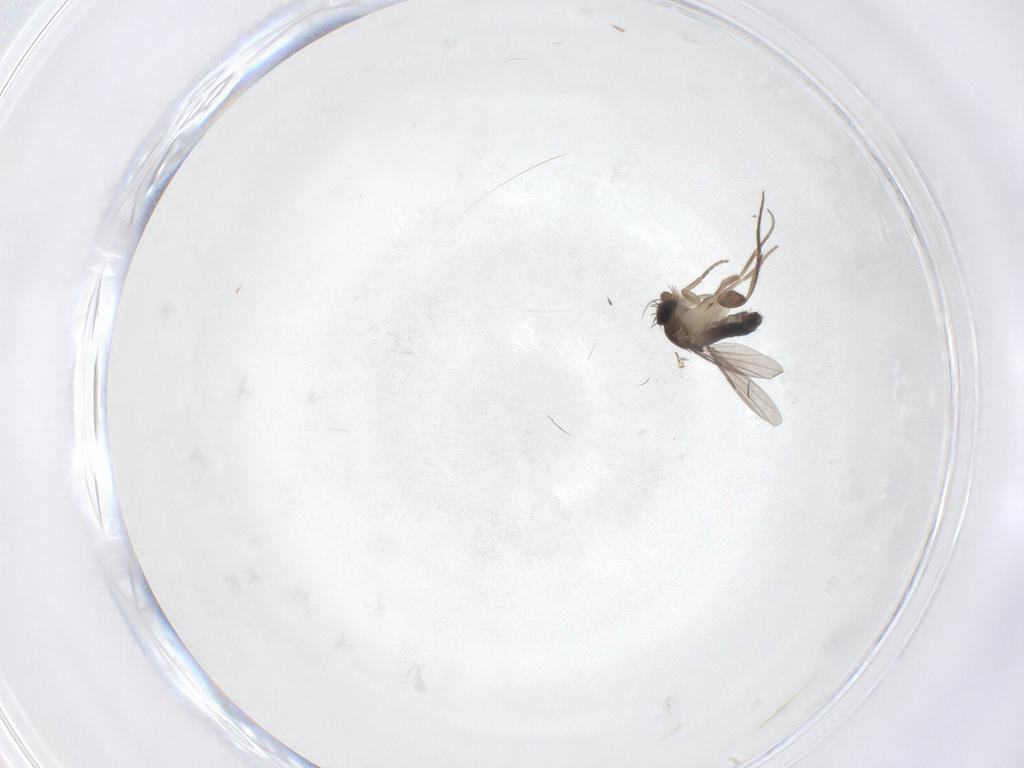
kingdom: Animalia
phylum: Arthropoda
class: Insecta
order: Diptera
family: Phoridae
